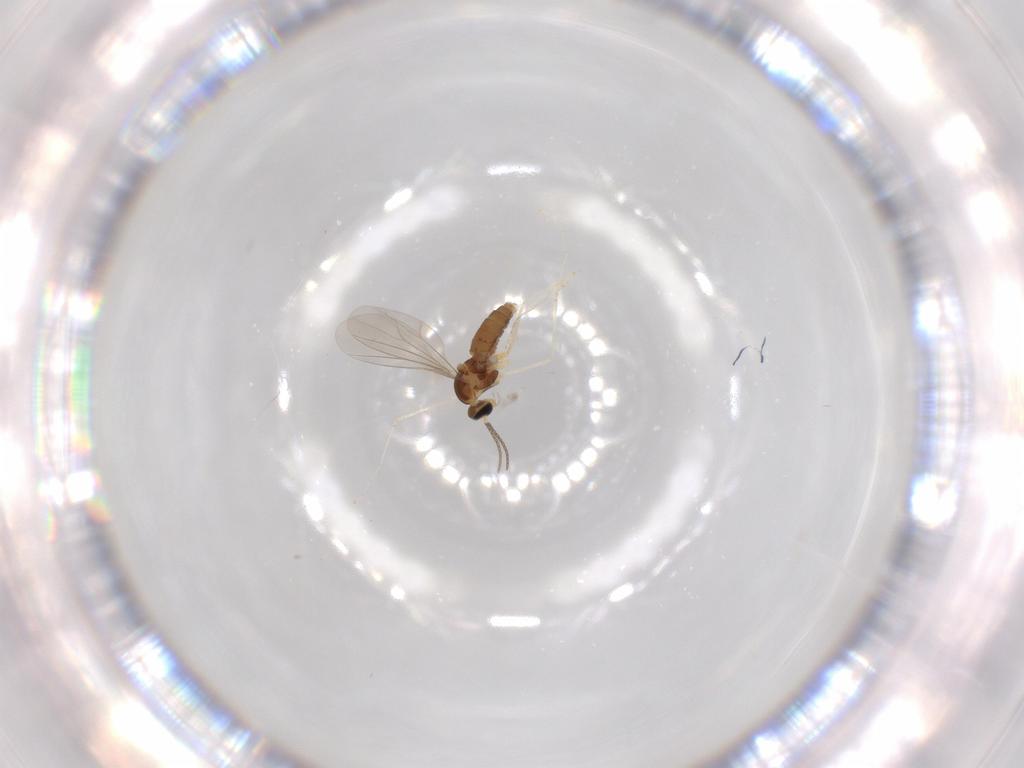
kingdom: Animalia
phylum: Arthropoda
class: Insecta
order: Diptera
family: Cecidomyiidae
